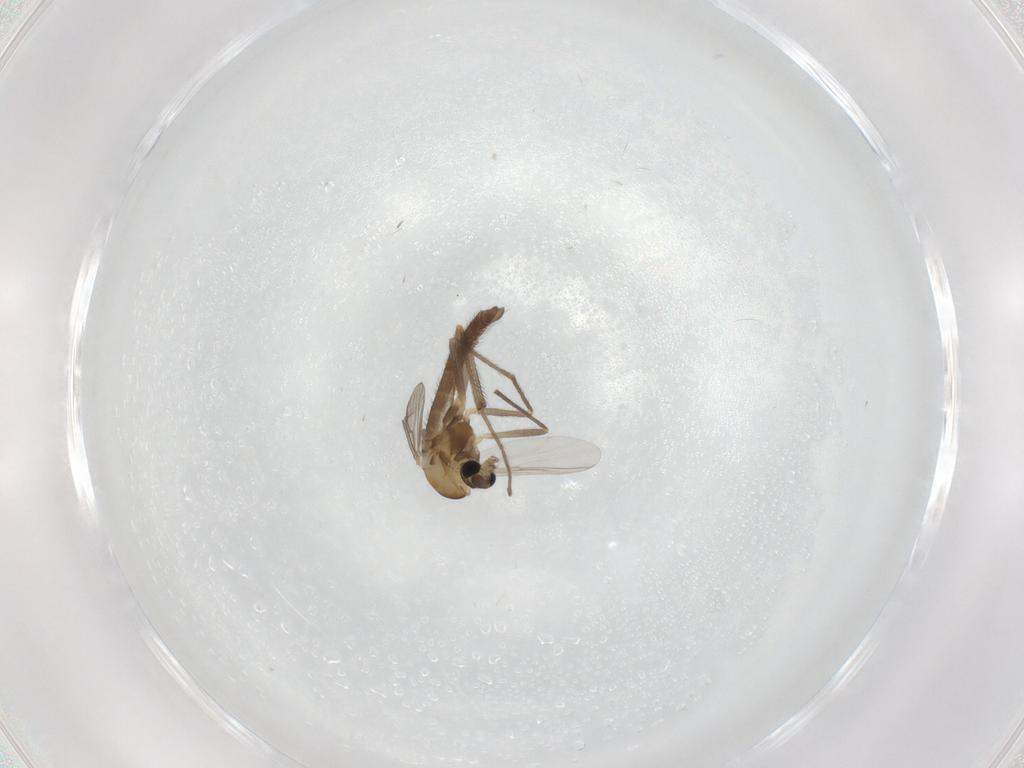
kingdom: Animalia
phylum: Arthropoda
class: Insecta
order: Diptera
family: Chironomidae
